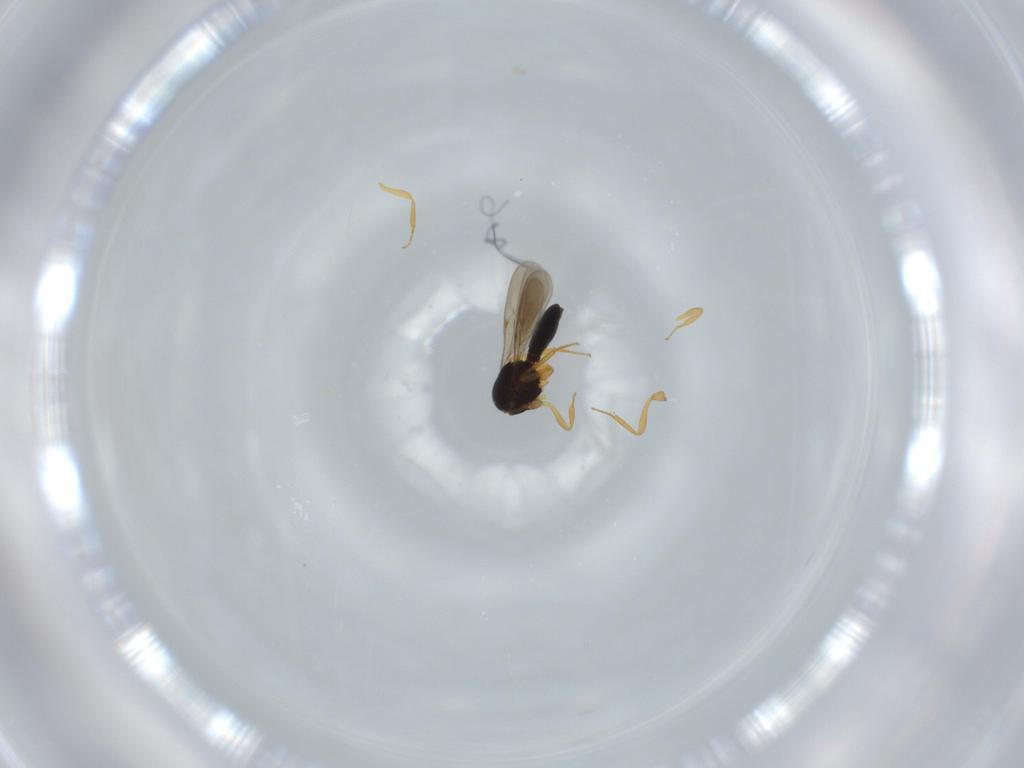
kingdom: Animalia
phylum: Arthropoda
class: Insecta
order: Hymenoptera
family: Scelionidae
